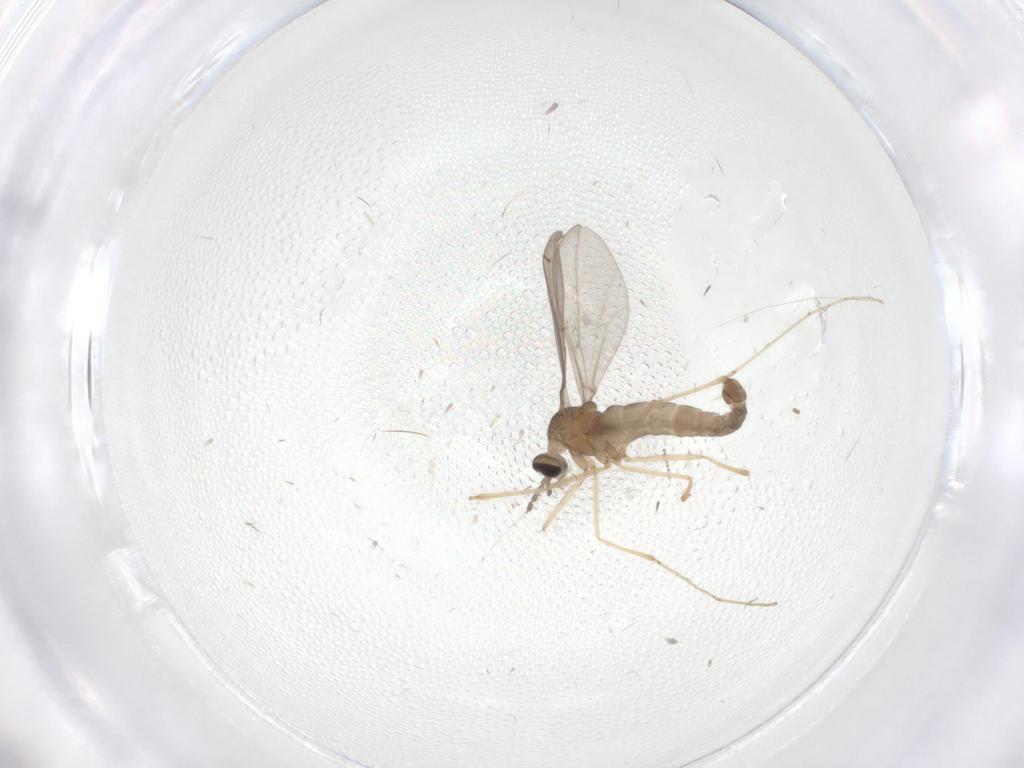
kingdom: Animalia
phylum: Arthropoda
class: Insecta
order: Diptera
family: Cecidomyiidae
